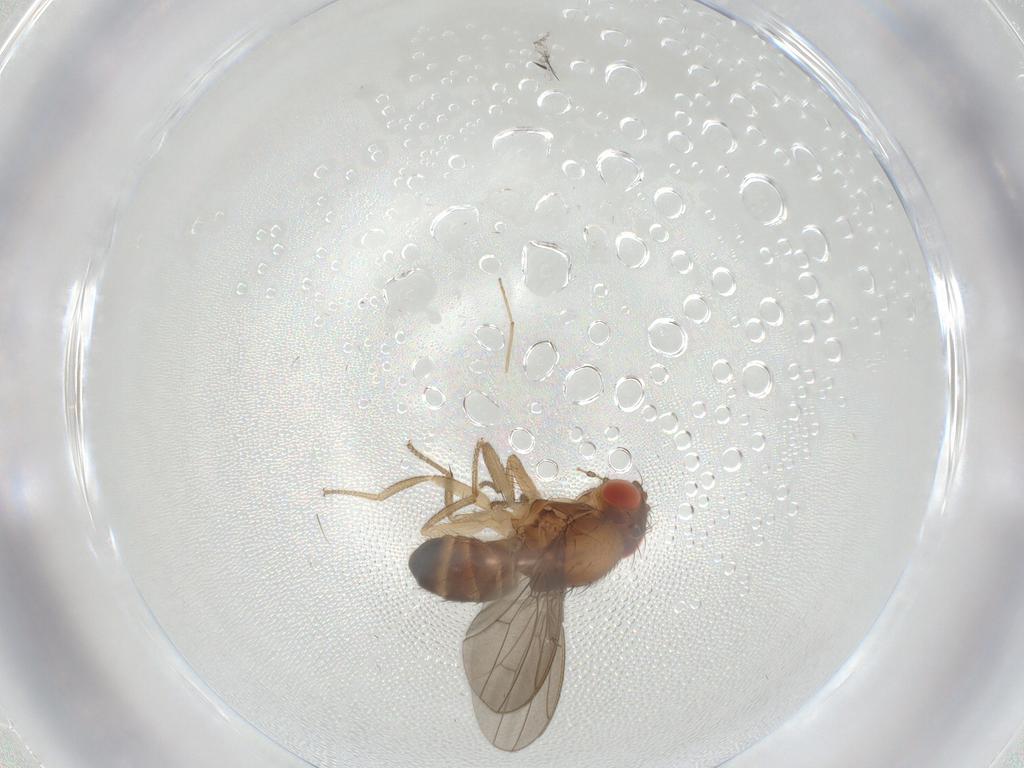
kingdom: Animalia
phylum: Arthropoda
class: Insecta
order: Diptera
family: Drosophilidae
